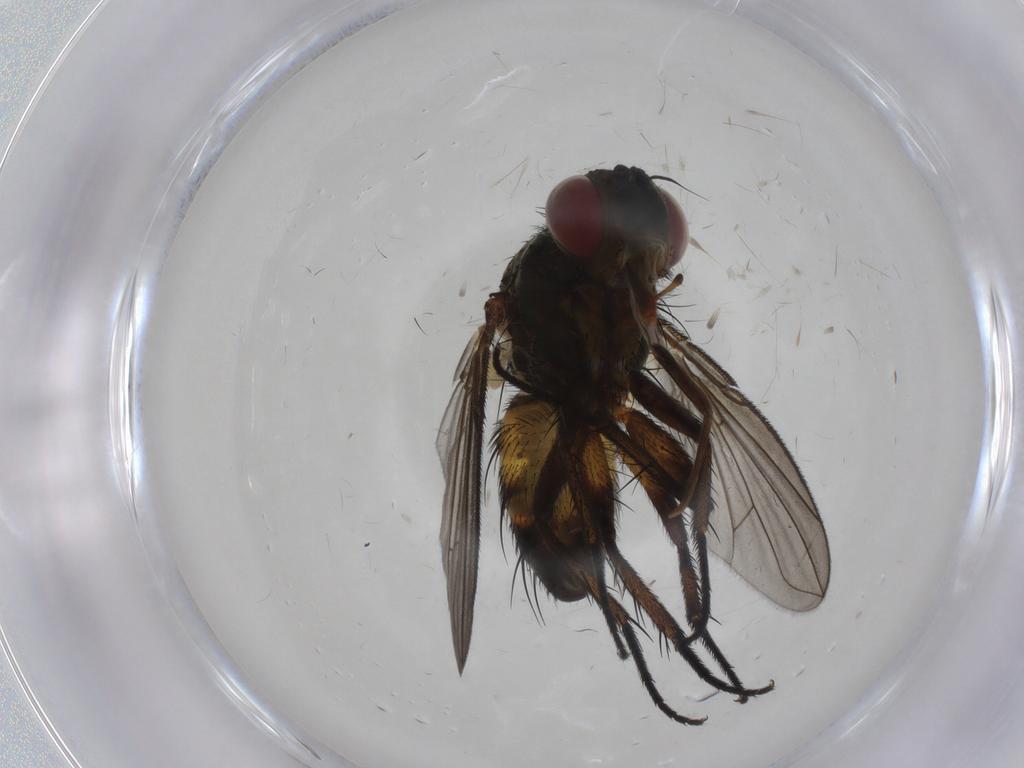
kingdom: Animalia
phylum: Arthropoda
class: Insecta
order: Diptera
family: Tachinidae
